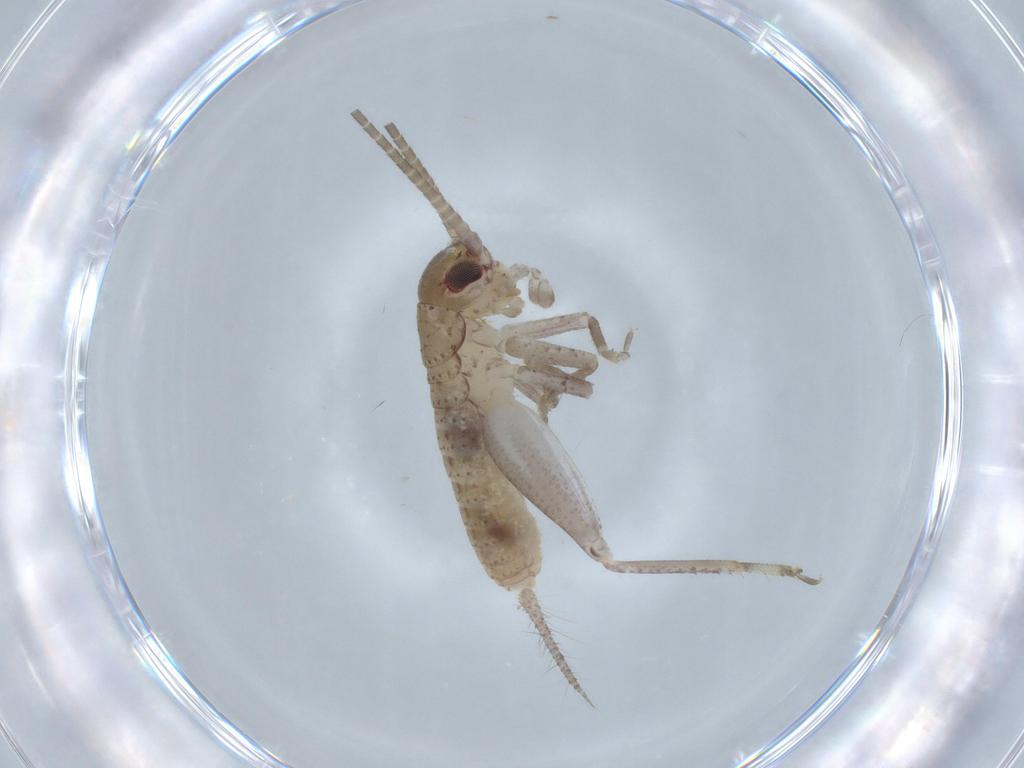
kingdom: Animalia
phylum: Arthropoda
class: Insecta
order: Orthoptera
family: Gryllidae
